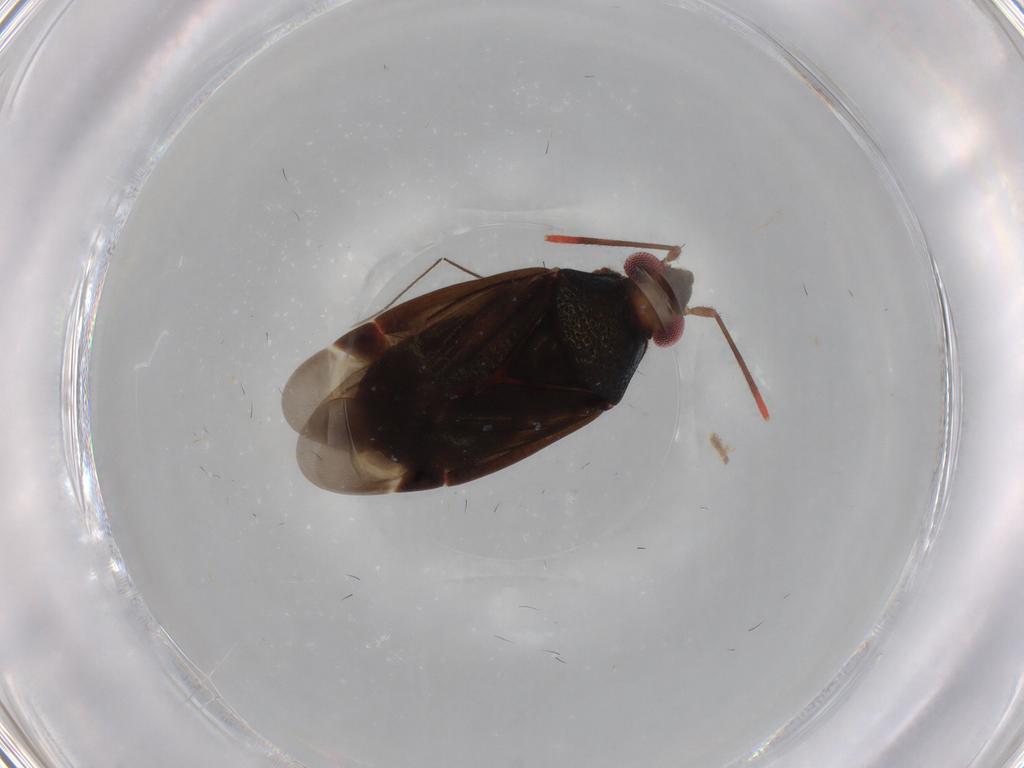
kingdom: Animalia
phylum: Arthropoda
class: Insecta
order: Hemiptera
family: Miridae
